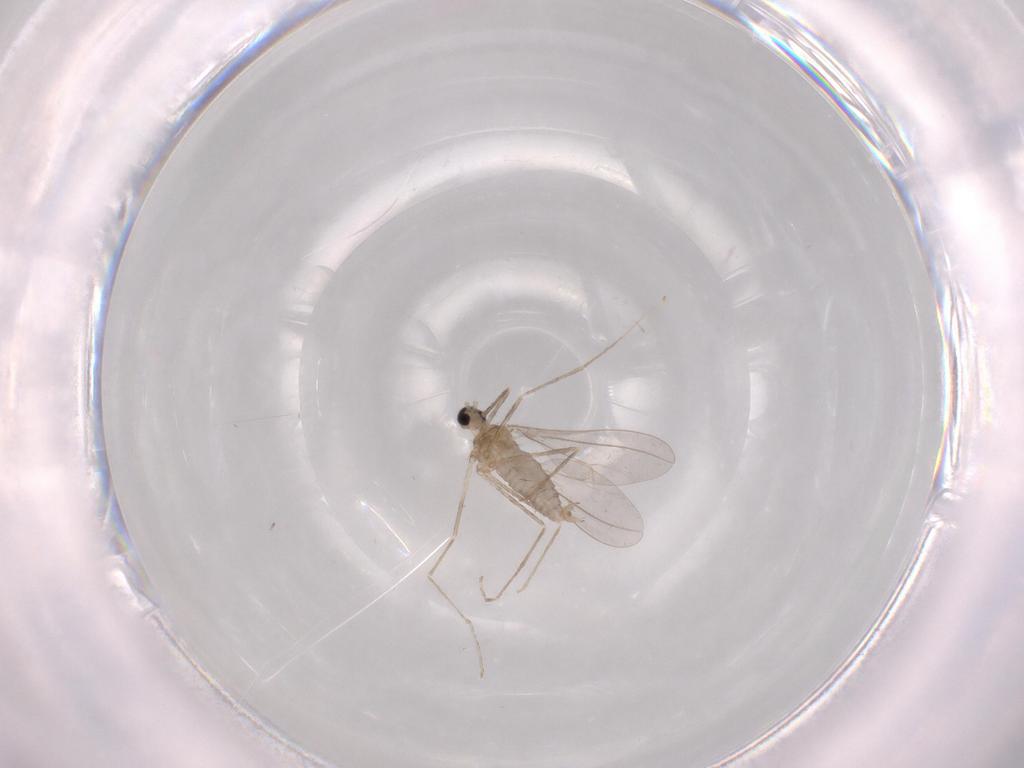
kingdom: Animalia
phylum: Arthropoda
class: Insecta
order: Diptera
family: Cecidomyiidae
